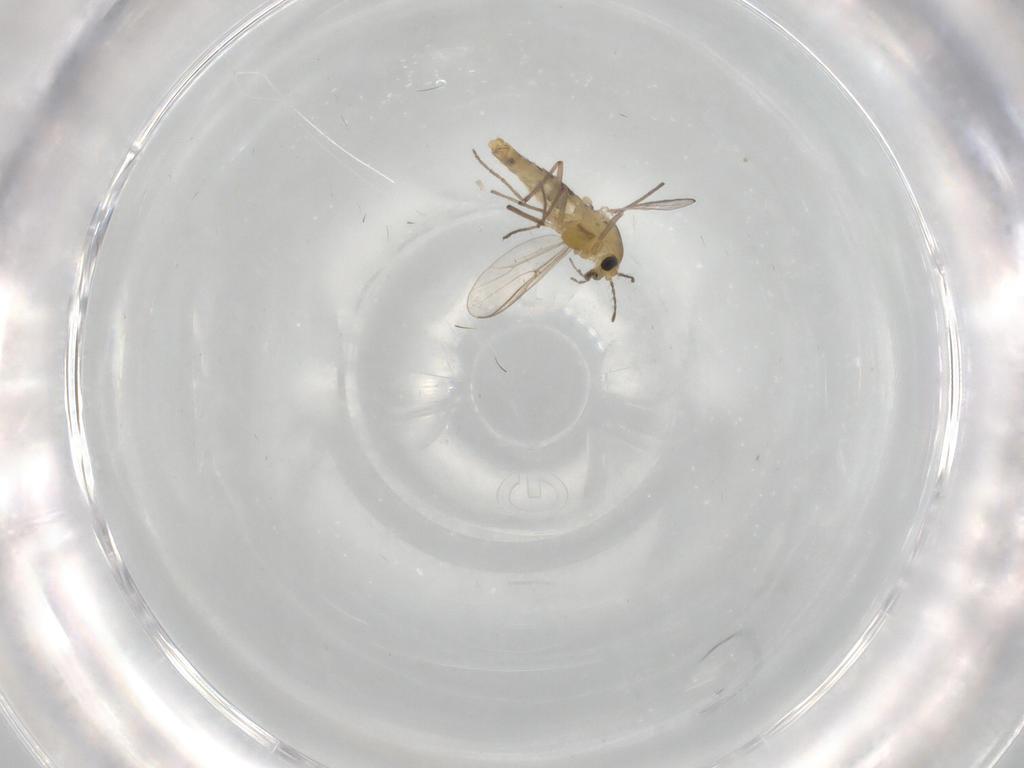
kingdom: Animalia
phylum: Arthropoda
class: Insecta
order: Diptera
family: Chironomidae
